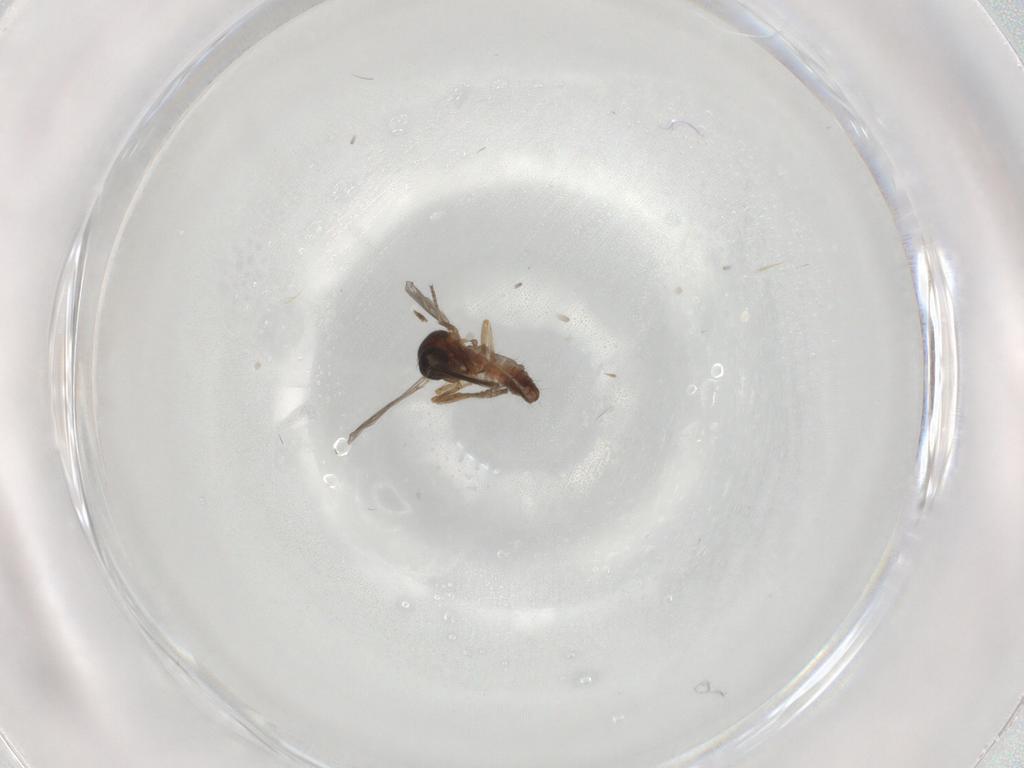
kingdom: Animalia
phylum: Arthropoda
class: Insecta
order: Diptera
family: Ceratopogonidae
